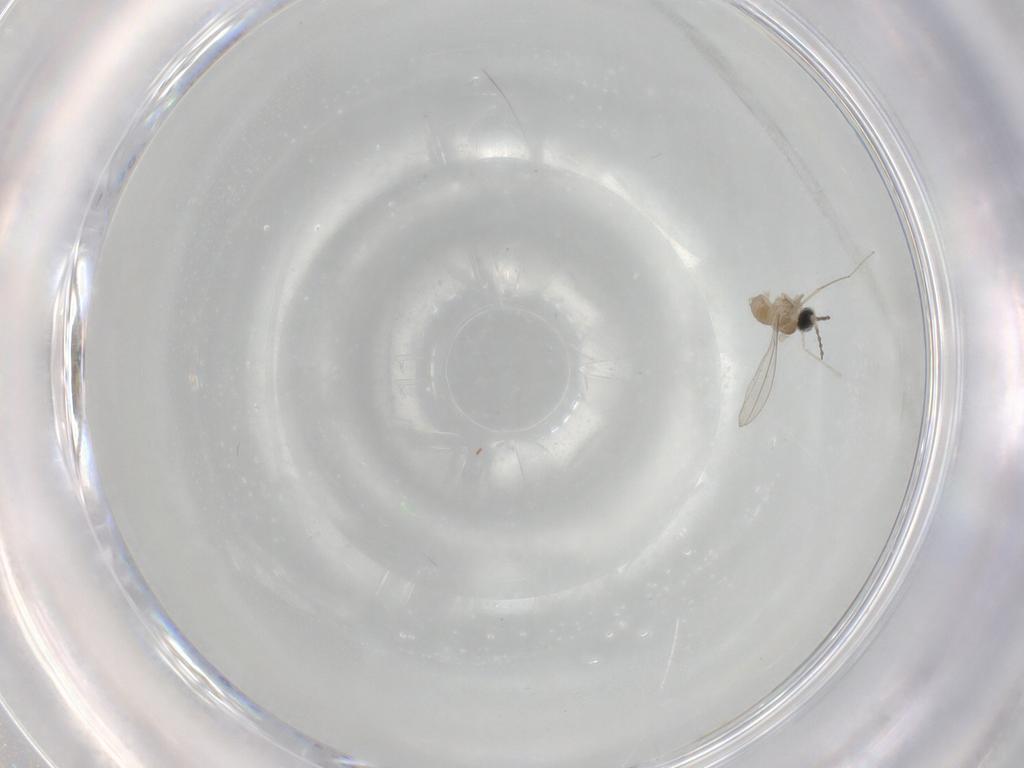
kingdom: Animalia
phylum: Arthropoda
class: Insecta
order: Diptera
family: Cecidomyiidae
